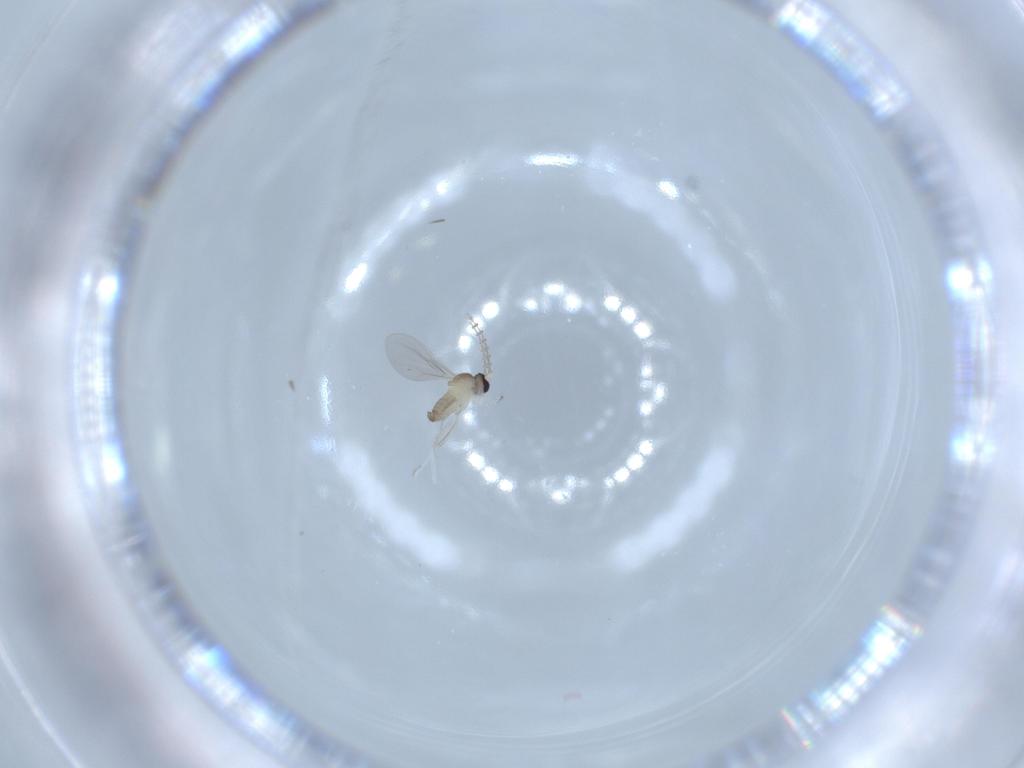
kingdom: Animalia
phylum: Arthropoda
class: Insecta
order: Diptera
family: Cecidomyiidae
